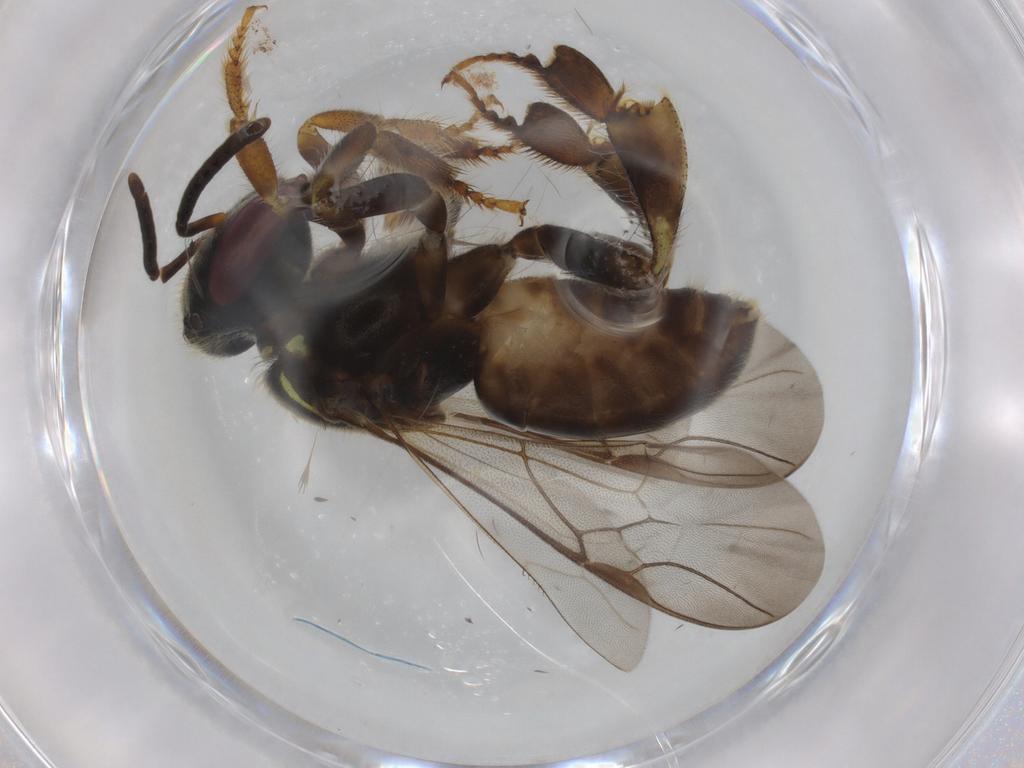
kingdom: Animalia
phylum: Arthropoda
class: Insecta
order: Hymenoptera
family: Apidae
